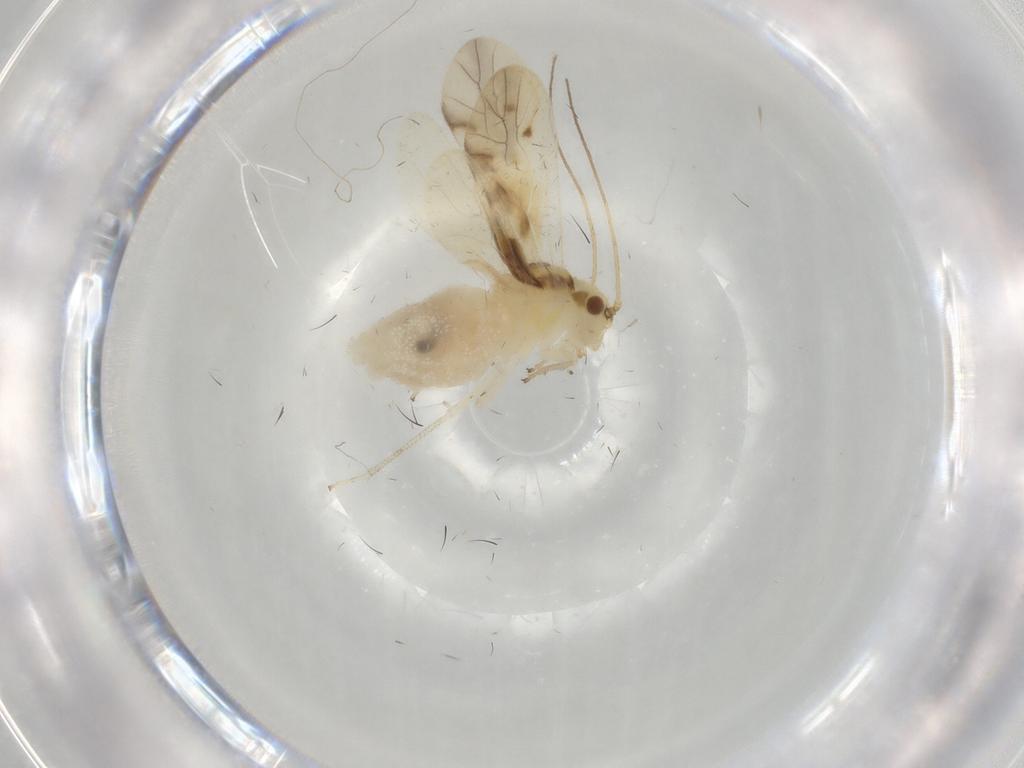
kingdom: Animalia
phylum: Arthropoda
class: Insecta
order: Psocodea
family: Caeciliusidae
